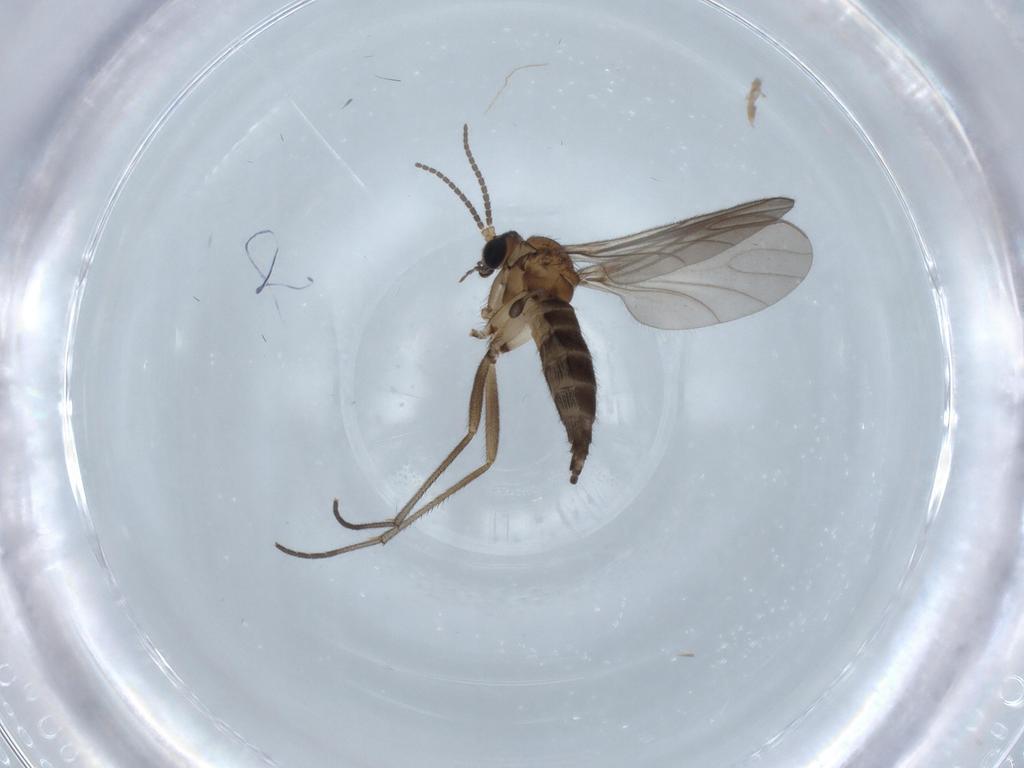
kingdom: Animalia
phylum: Arthropoda
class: Insecta
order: Diptera
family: Sciaridae
